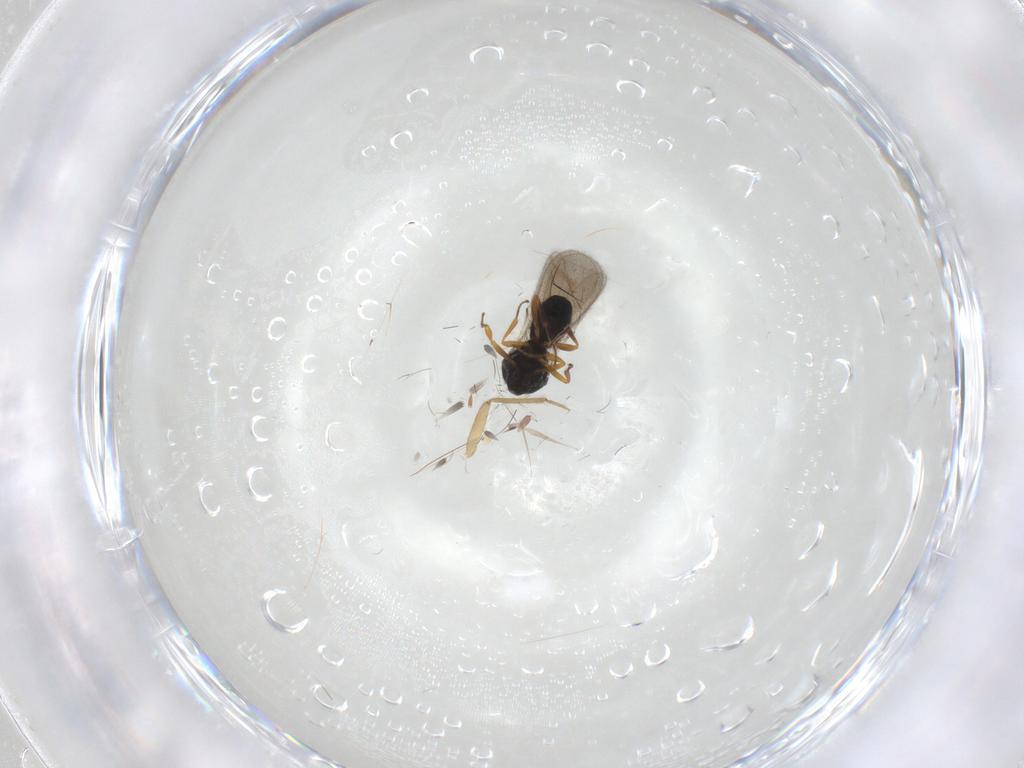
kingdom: Animalia
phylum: Arthropoda
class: Insecta
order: Hymenoptera
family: Scelionidae
